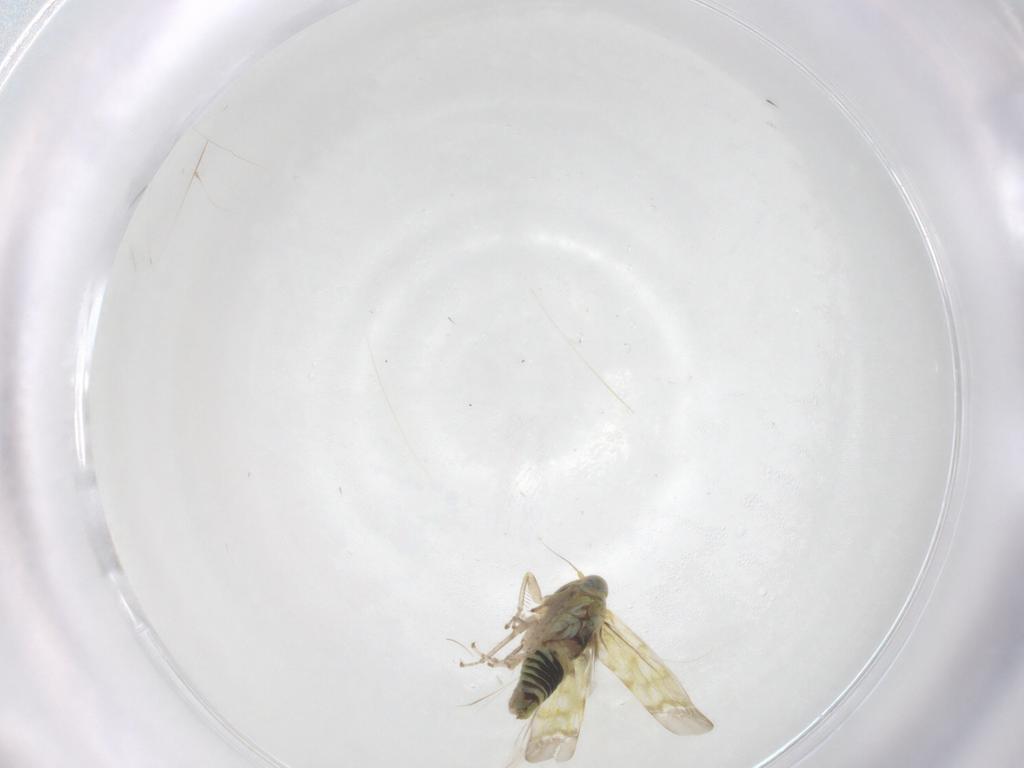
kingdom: Animalia
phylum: Arthropoda
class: Insecta
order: Hemiptera
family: Cicadellidae
